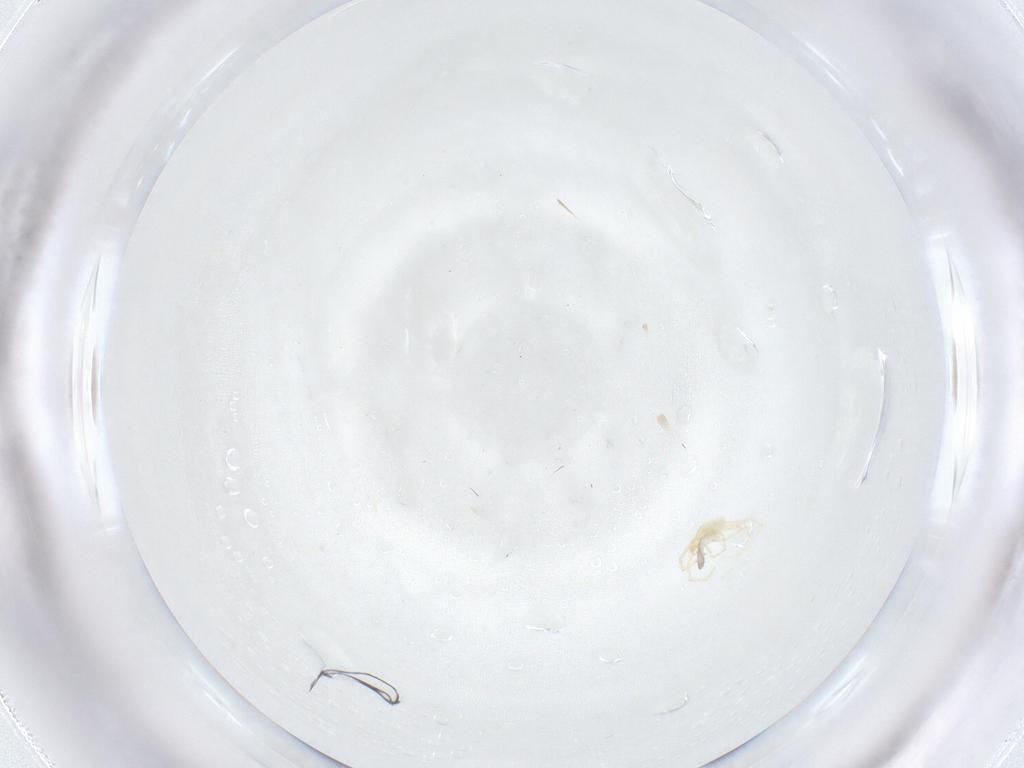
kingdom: Animalia
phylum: Arthropoda
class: Arachnida
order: Trombidiformes
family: Erythraeidae
